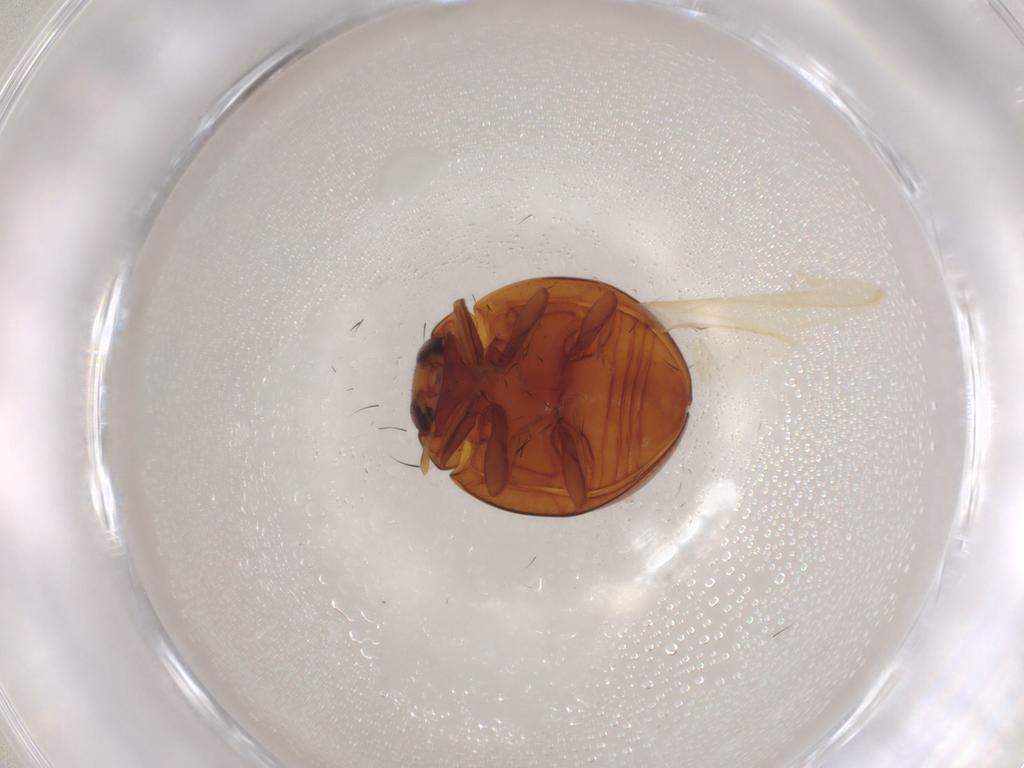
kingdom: Animalia
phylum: Arthropoda
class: Insecta
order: Coleoptera
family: Coccinellidae
